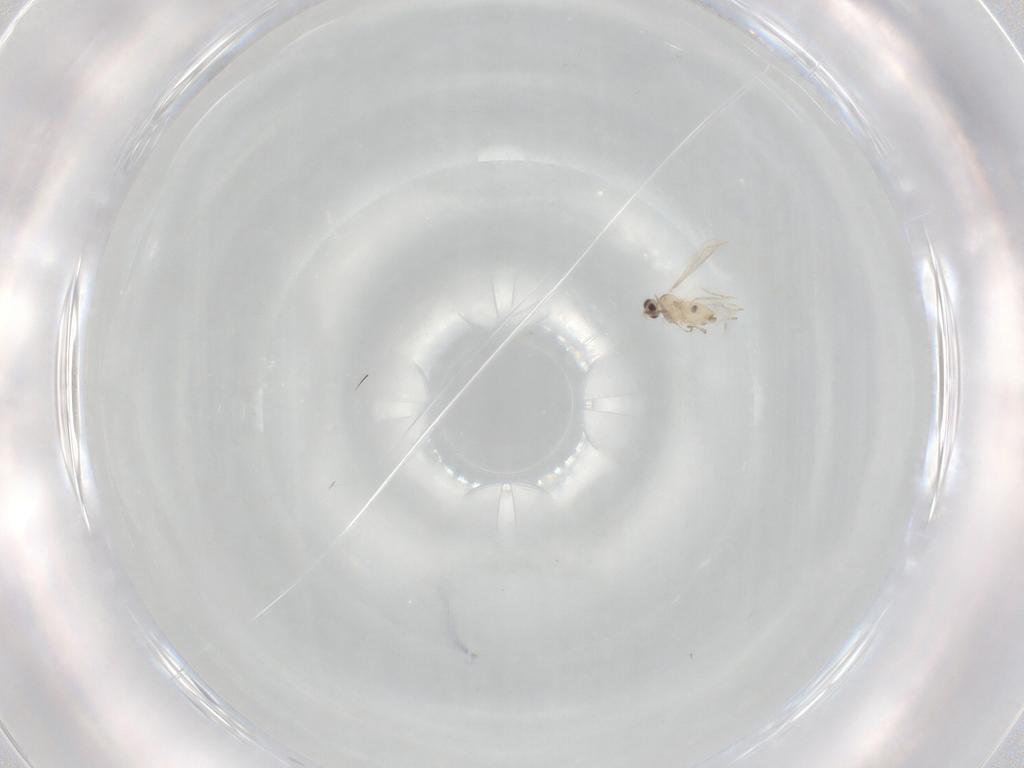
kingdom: Animalia
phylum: Arthropoda
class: Insecta
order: Diptera
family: Cecidomyiidae
